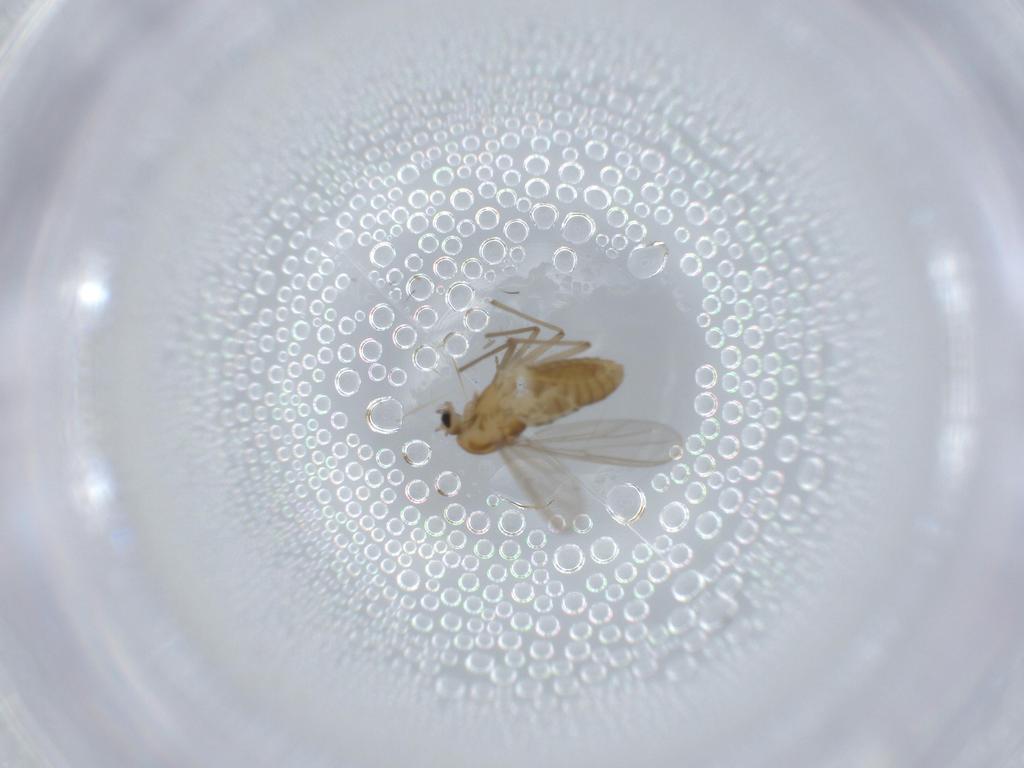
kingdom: Animalia
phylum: Arthropoda
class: Insecta
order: Diptera
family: Chironomidae
